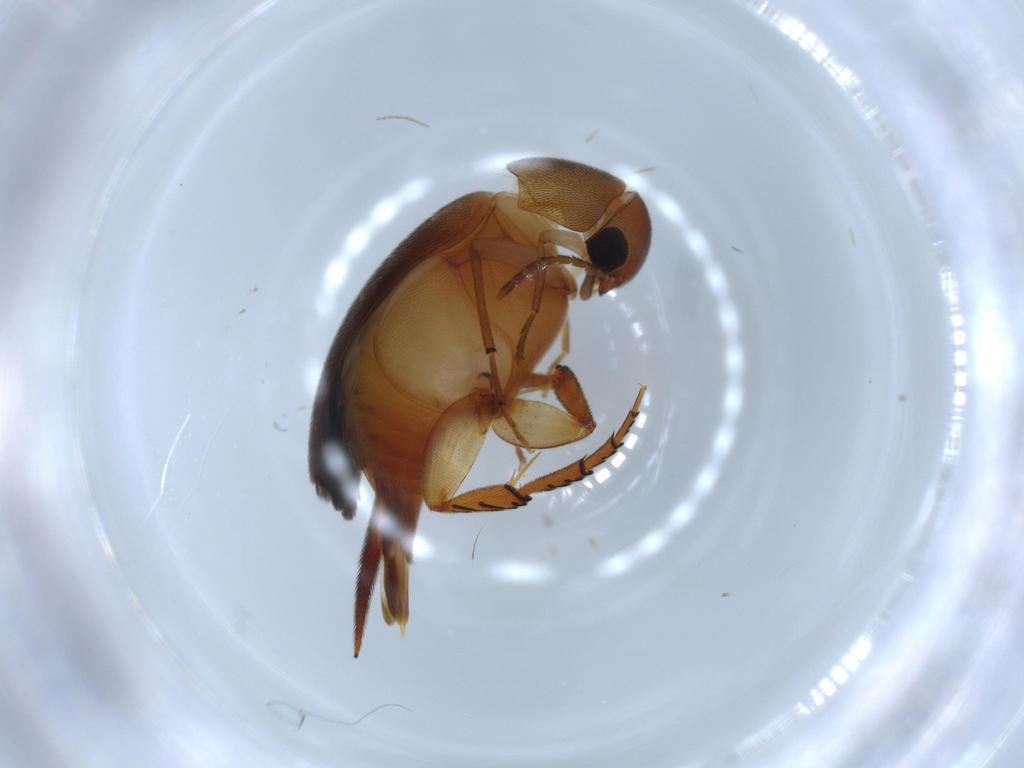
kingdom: Animalia
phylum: Arthropoda
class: Insecta
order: Coleoptera
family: Mordellidae
